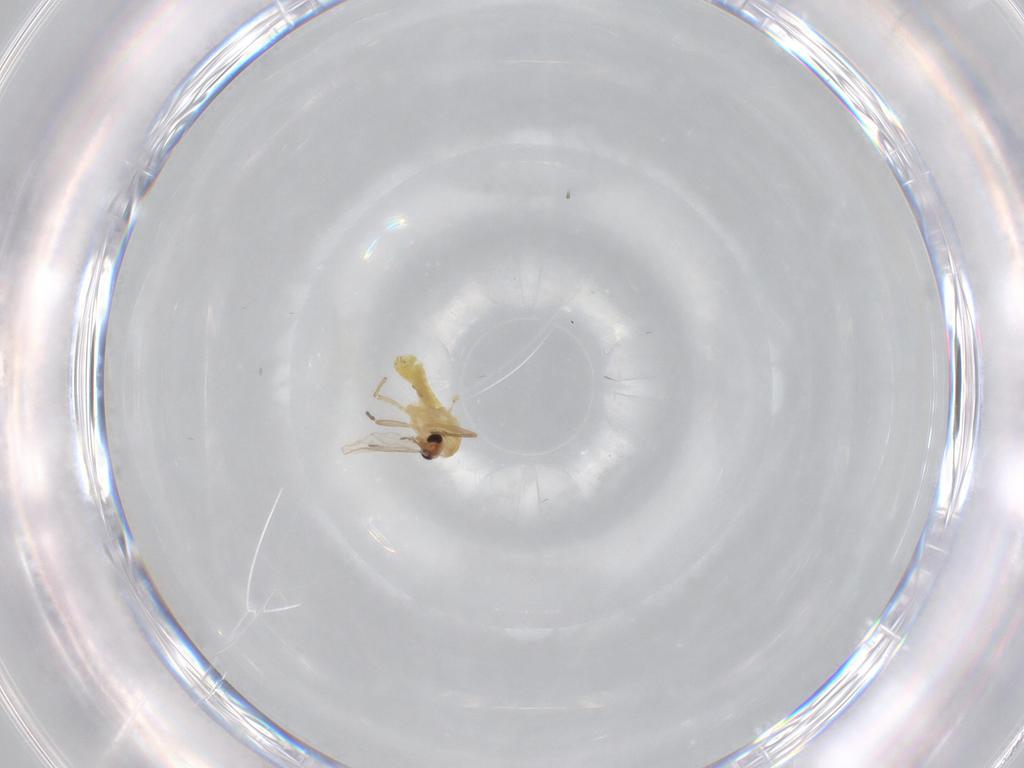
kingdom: Animalia
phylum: Arthropoda
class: Insecta
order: Diptera
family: Chironomidae
